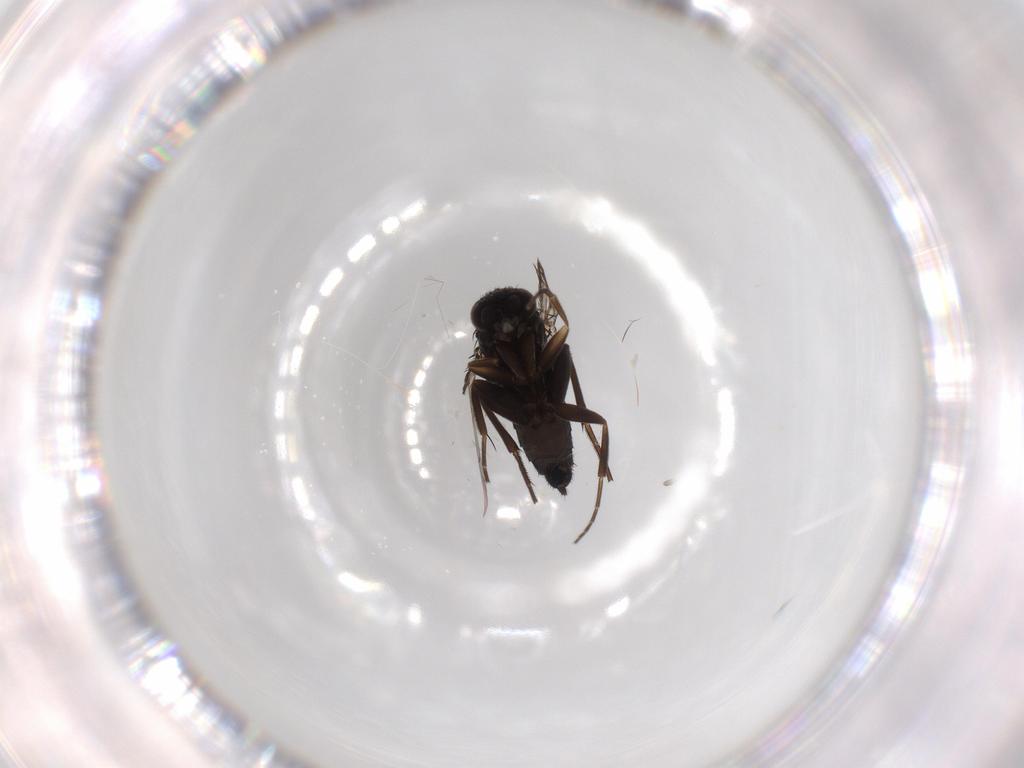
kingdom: Animalia
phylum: Arthropoda
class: Insecta
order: Diptera
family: Phoridae
